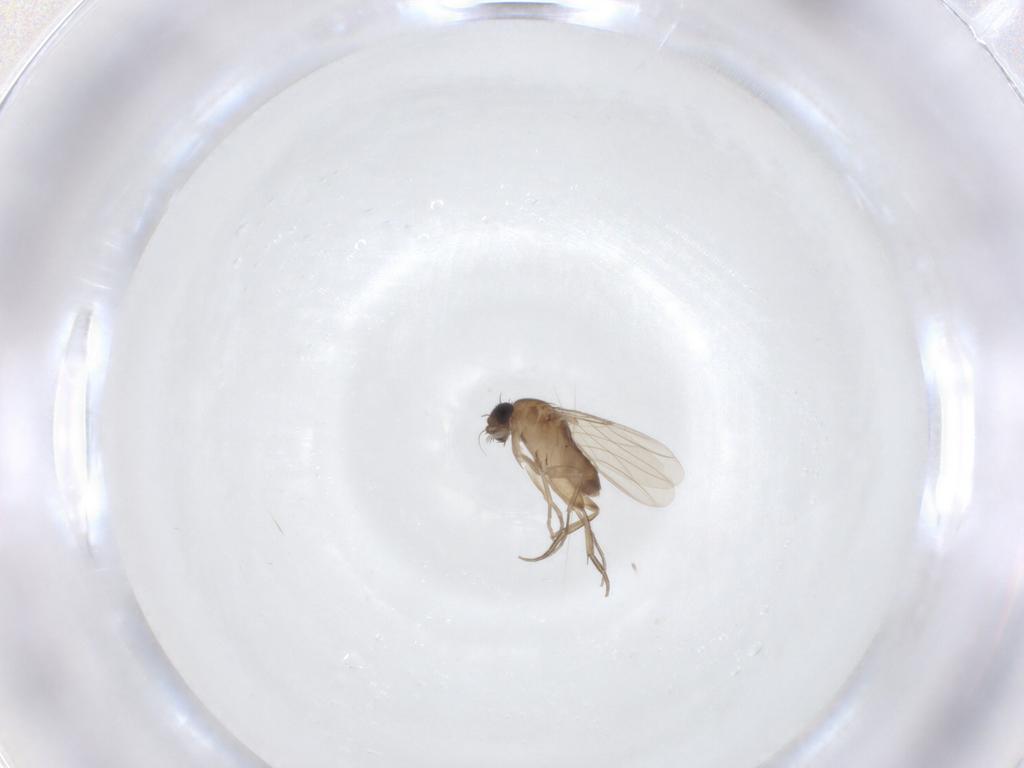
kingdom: Animalia
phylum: Arthropoda
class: Insecta
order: Diptera
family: Phoridae
